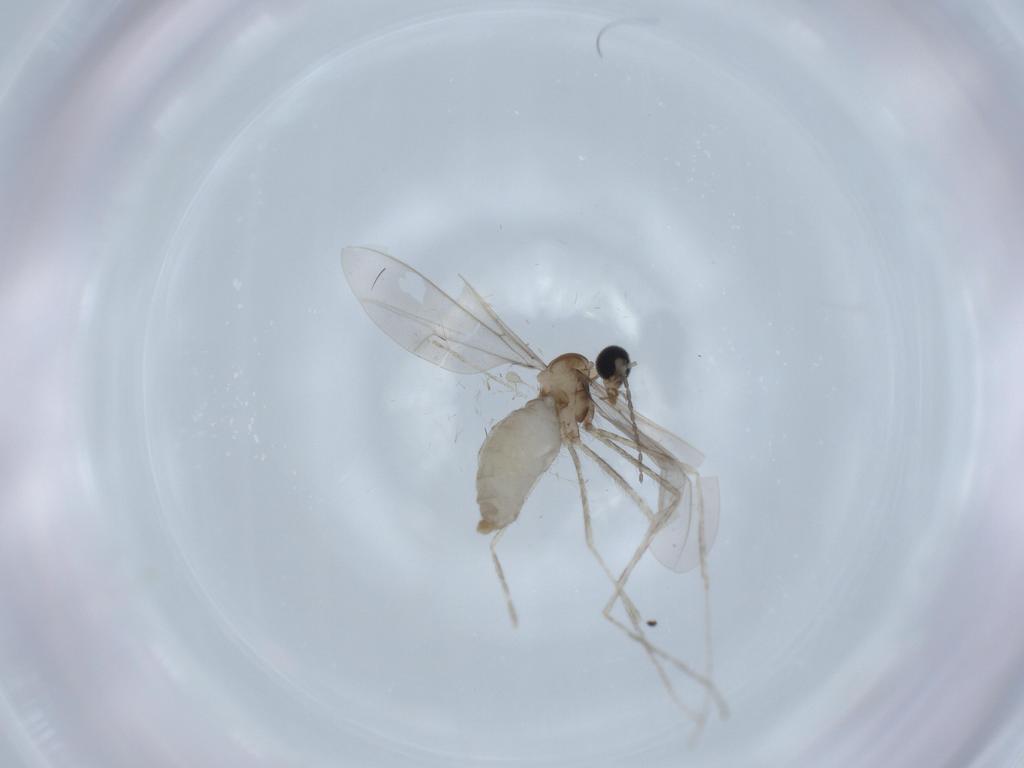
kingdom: Animalia
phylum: Arthropoda
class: Insecta
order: Diptera
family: Cecidomyiidae
